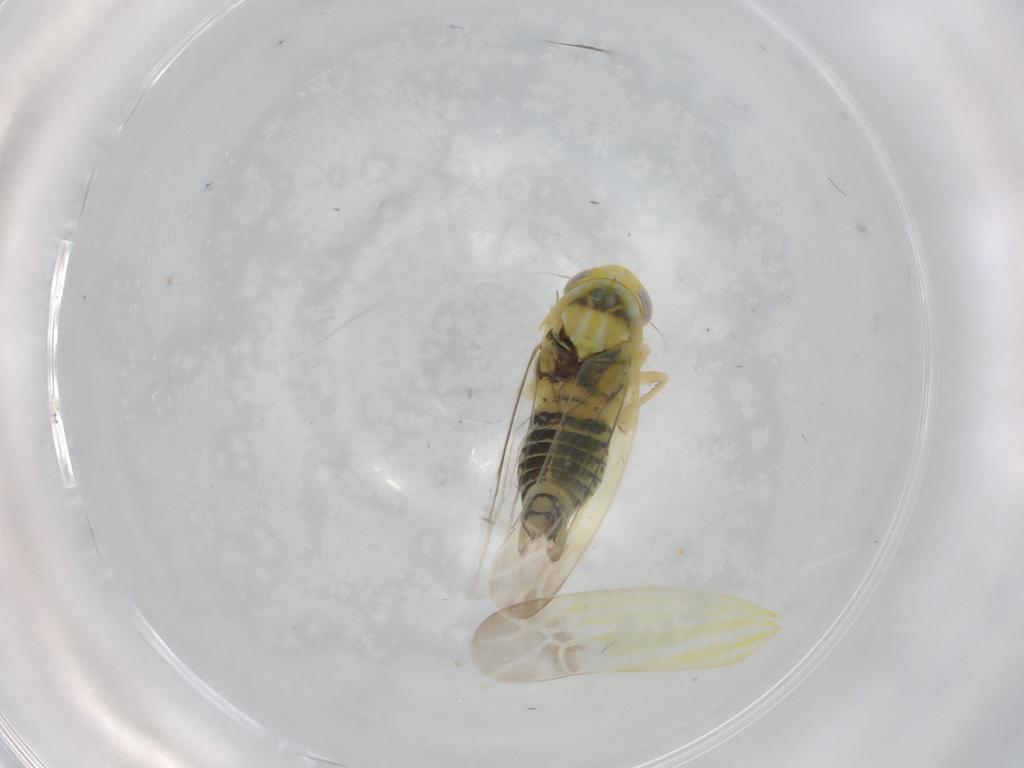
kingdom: Animalia
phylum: Arthropoda
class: Insecta
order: Hemiptera
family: Cicadellidae
